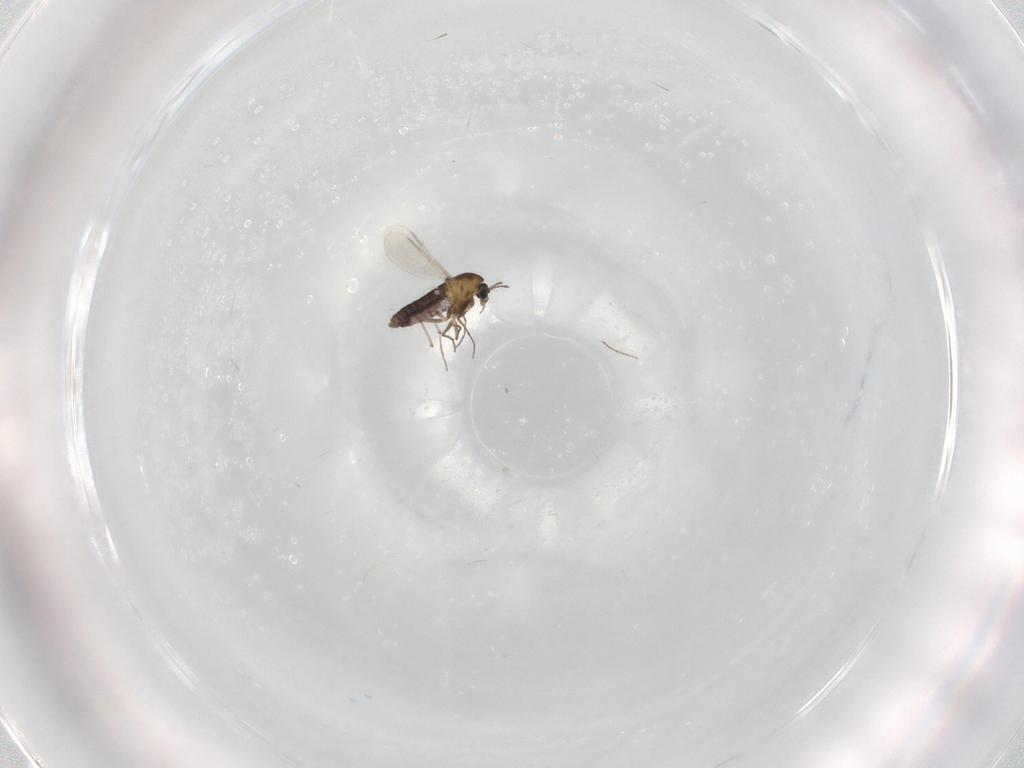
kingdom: Animalia
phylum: Arthropoda
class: Insecta
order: Diptera
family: Chironomidae
